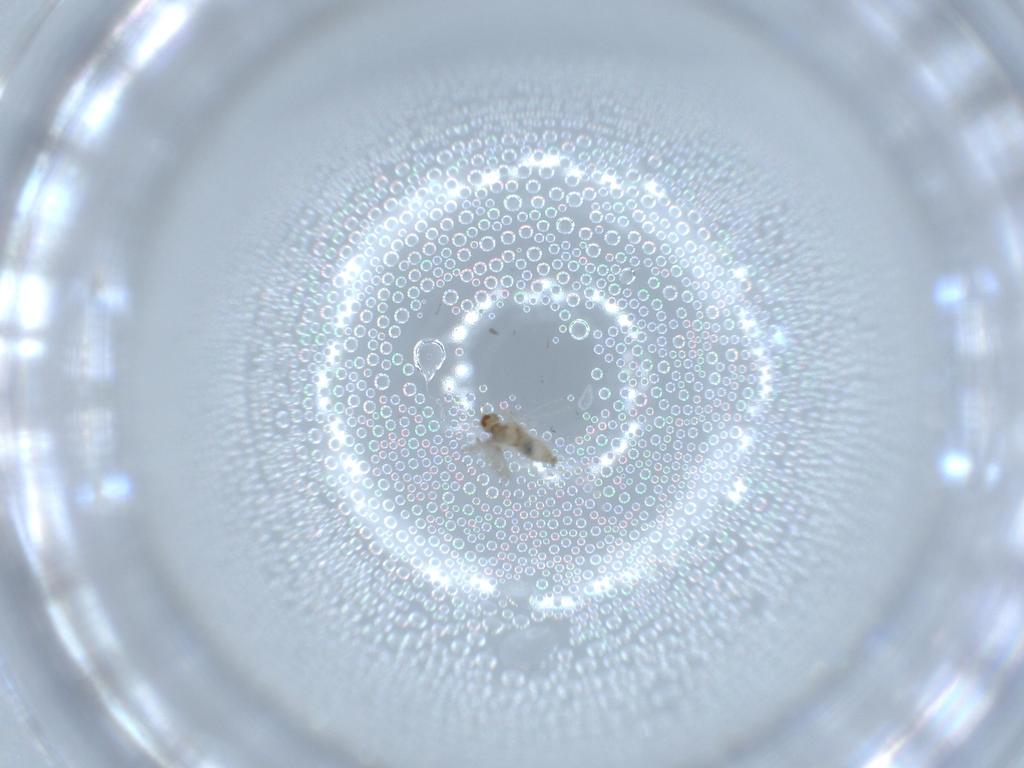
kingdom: Animalia
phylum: Arthropoda
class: Insecta
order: Diptera
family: Cecidomyiidae
